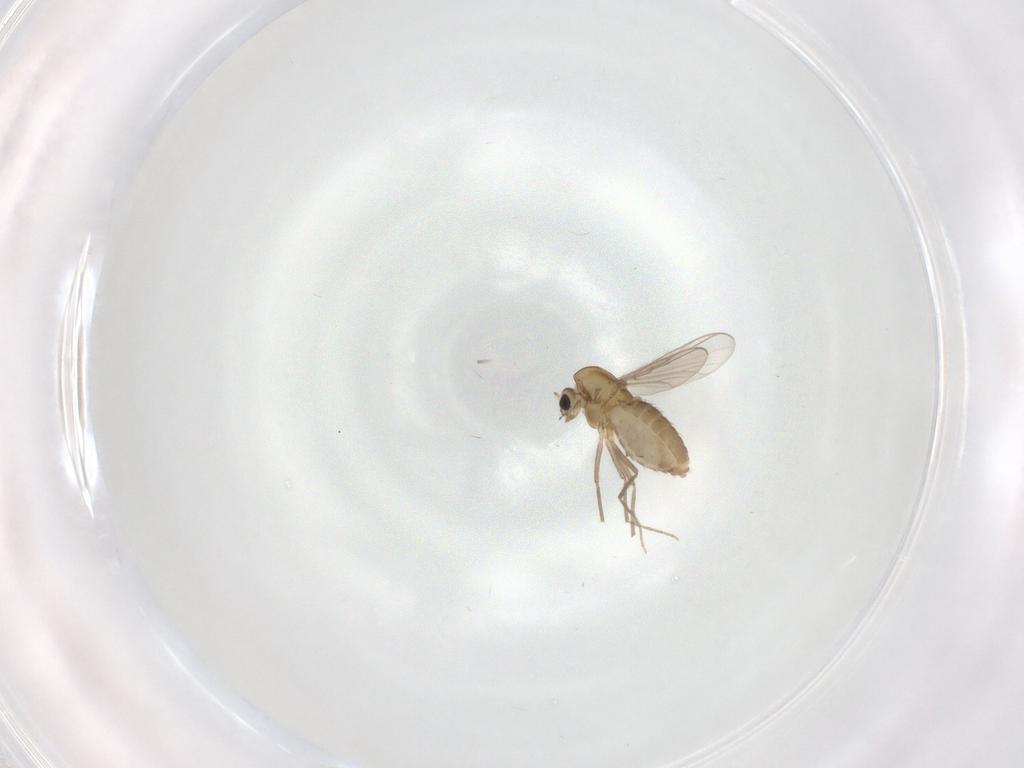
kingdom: Animalia
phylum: Arthropoda
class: Insecta
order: Diptera
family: Chironomidae
